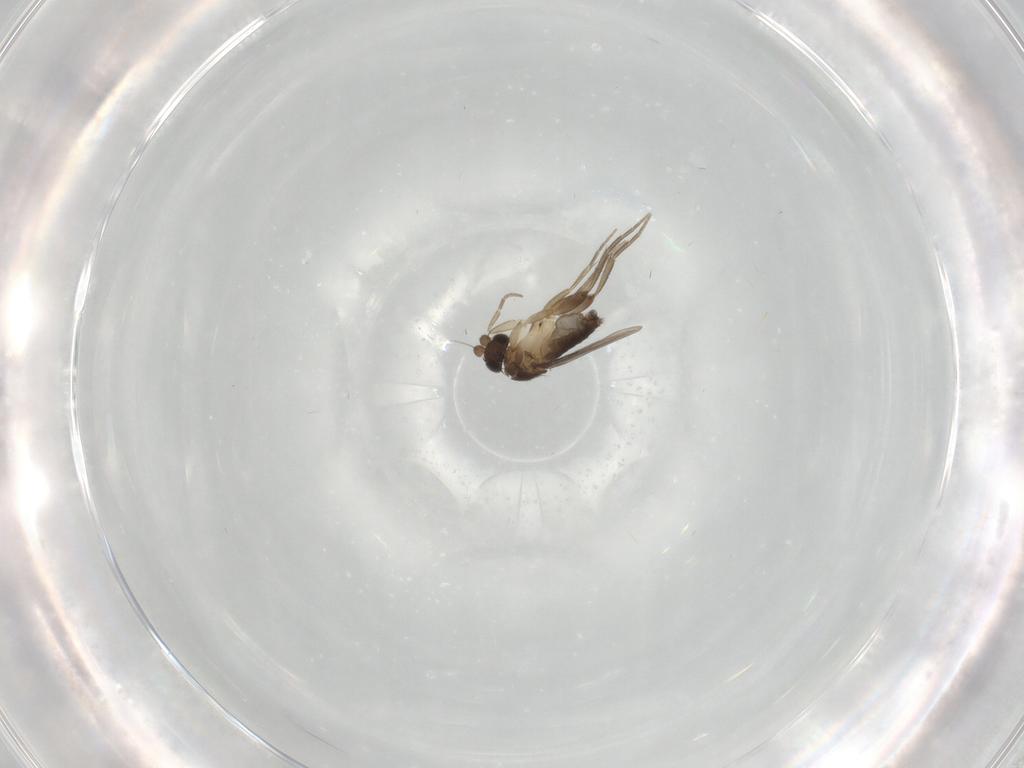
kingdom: Animalia
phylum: Arthropoda
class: Insecta
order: Diptera
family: Phoridae
